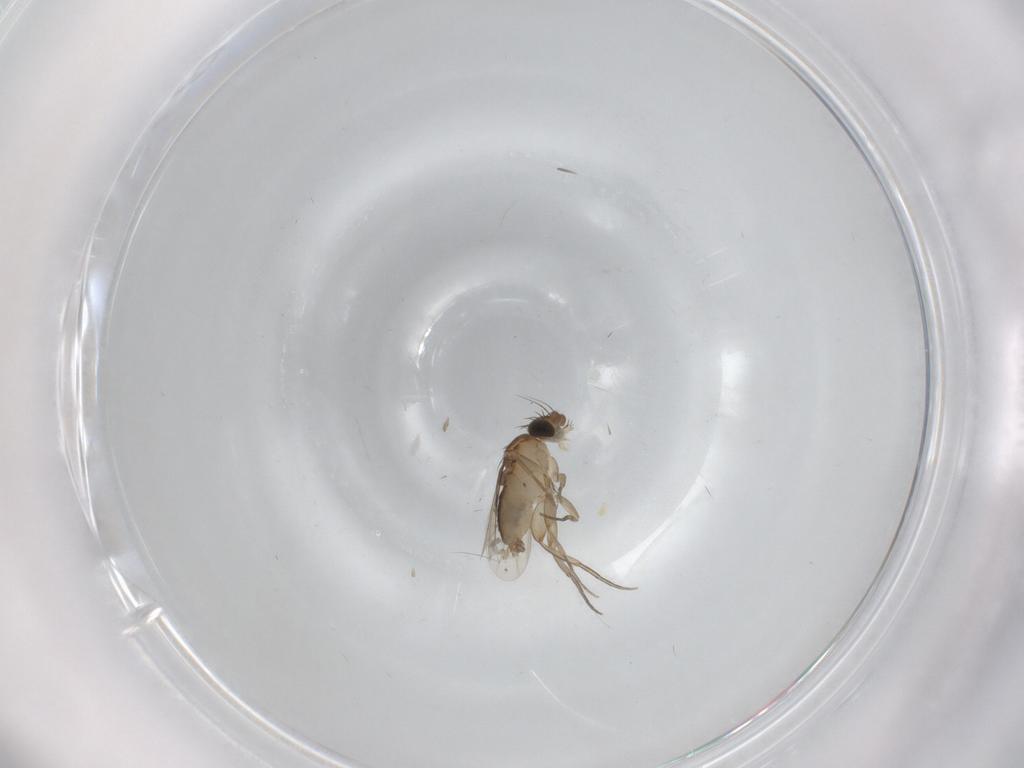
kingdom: Animalia
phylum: Arthropoda
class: Insecta
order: Diptera
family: Phoridae
